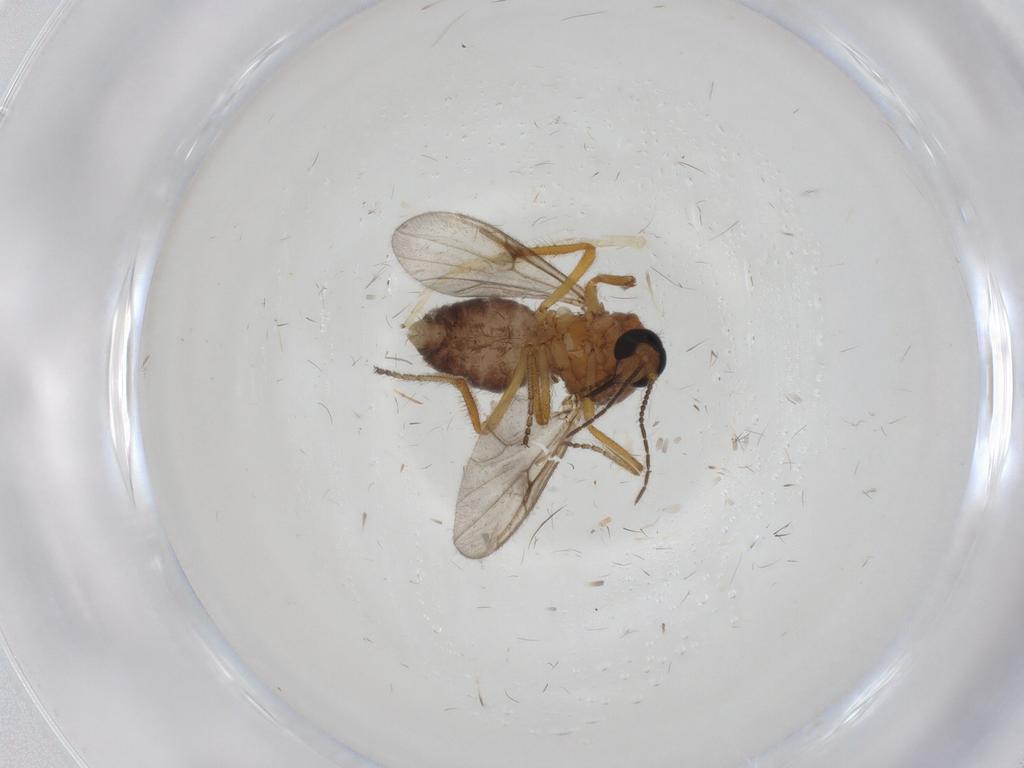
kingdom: Animalia
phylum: Arthropoda
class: Insecta
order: Diptera
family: Ceratopogonidae
